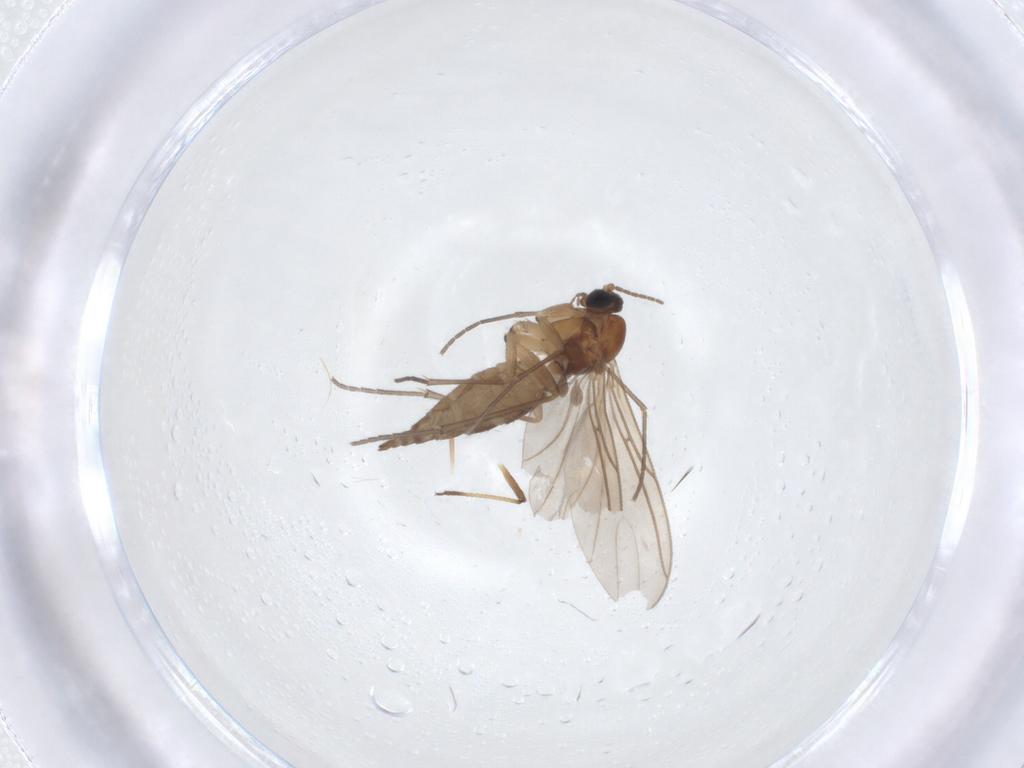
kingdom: Animalia
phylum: Arthropoda
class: Insecta
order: Diptera
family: Sciaridae
